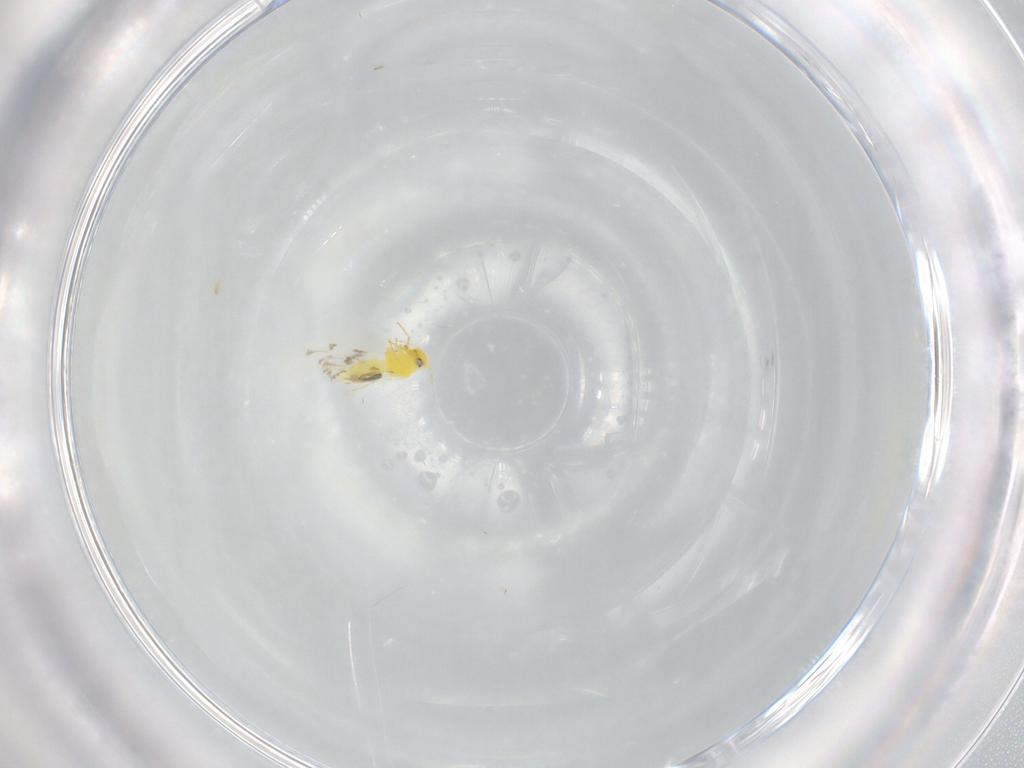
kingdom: Animalia
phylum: Arthropoda
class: Insecta
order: Hemiptera
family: Aleyrodidae
